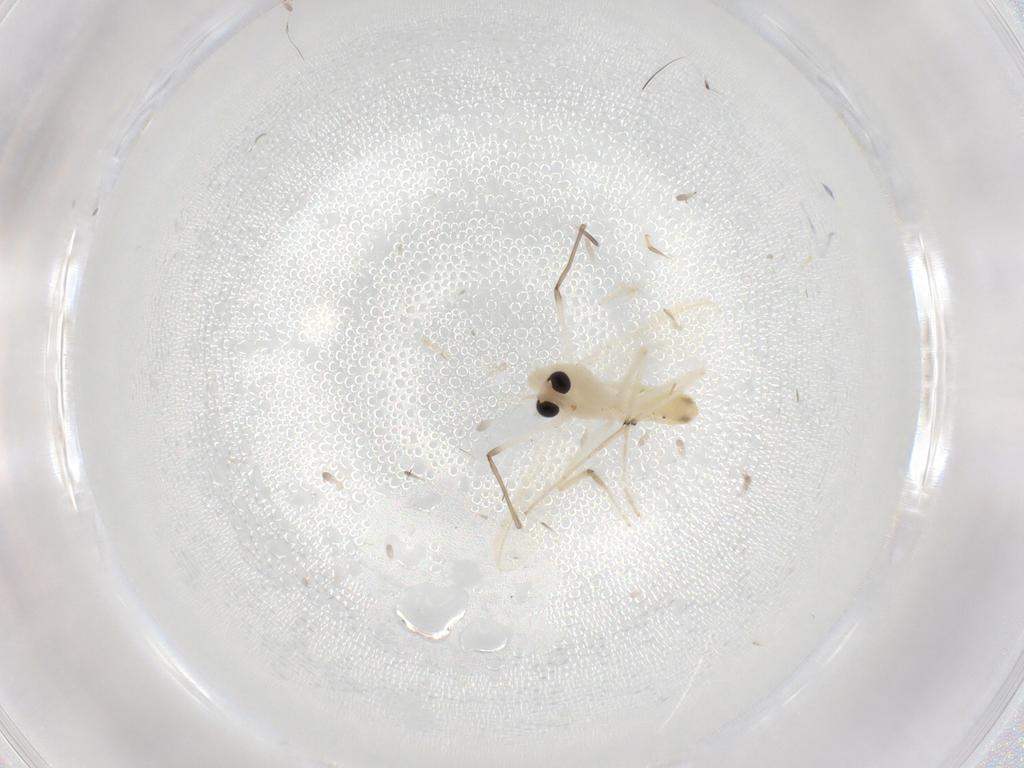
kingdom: Animalia
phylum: Arthropoda
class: Insecta
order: Diptera
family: Chironomidae
